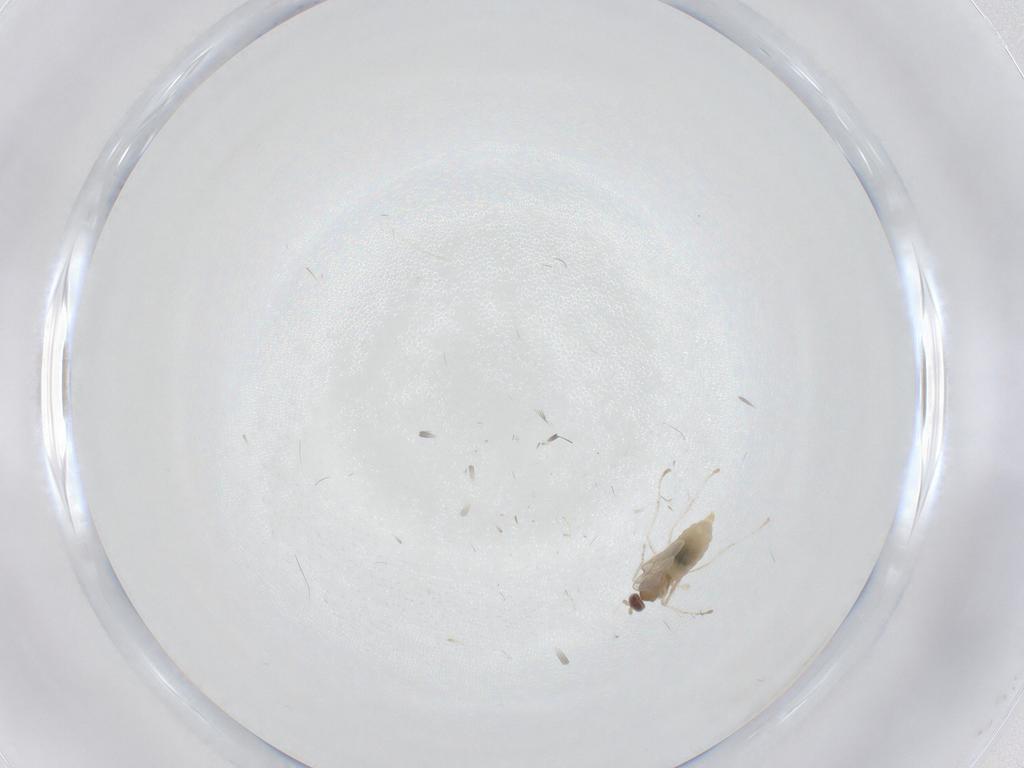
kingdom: Animalia
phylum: Arthropoda
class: Insecta
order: Diptera
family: Cecidomyiidae
